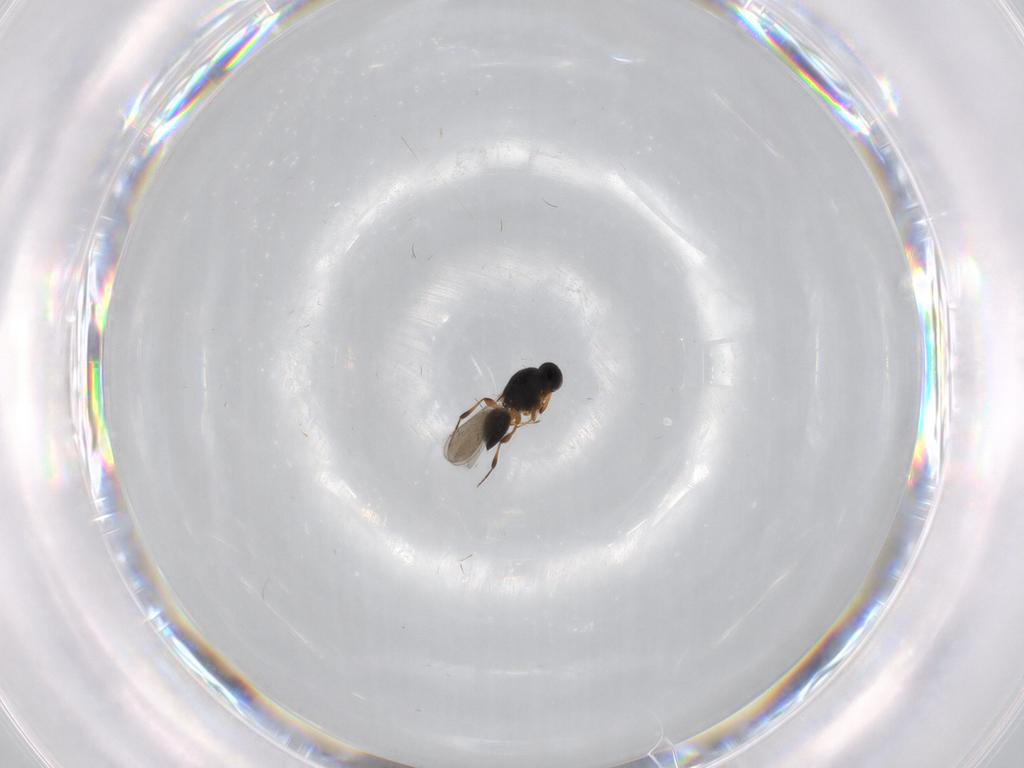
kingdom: Animalia
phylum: Arthropoda
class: Insecta
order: Hymenoptera
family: Platygastridae
